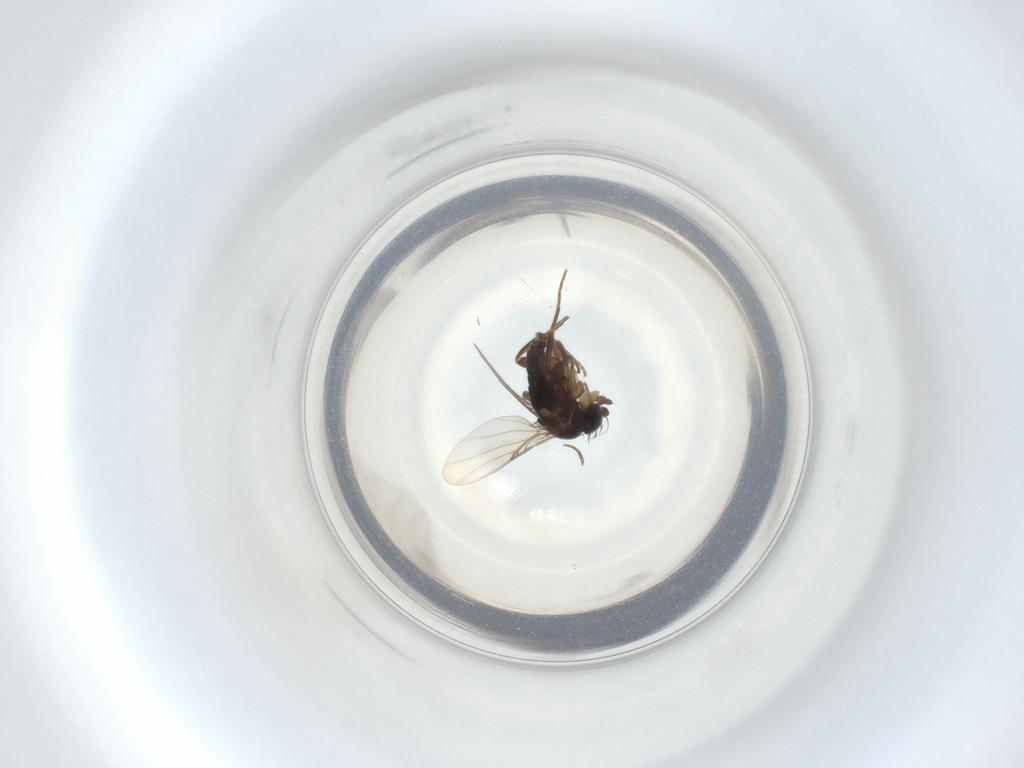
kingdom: Animalia
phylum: Arthropoda
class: Insecta
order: Diptera
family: Phoridae
